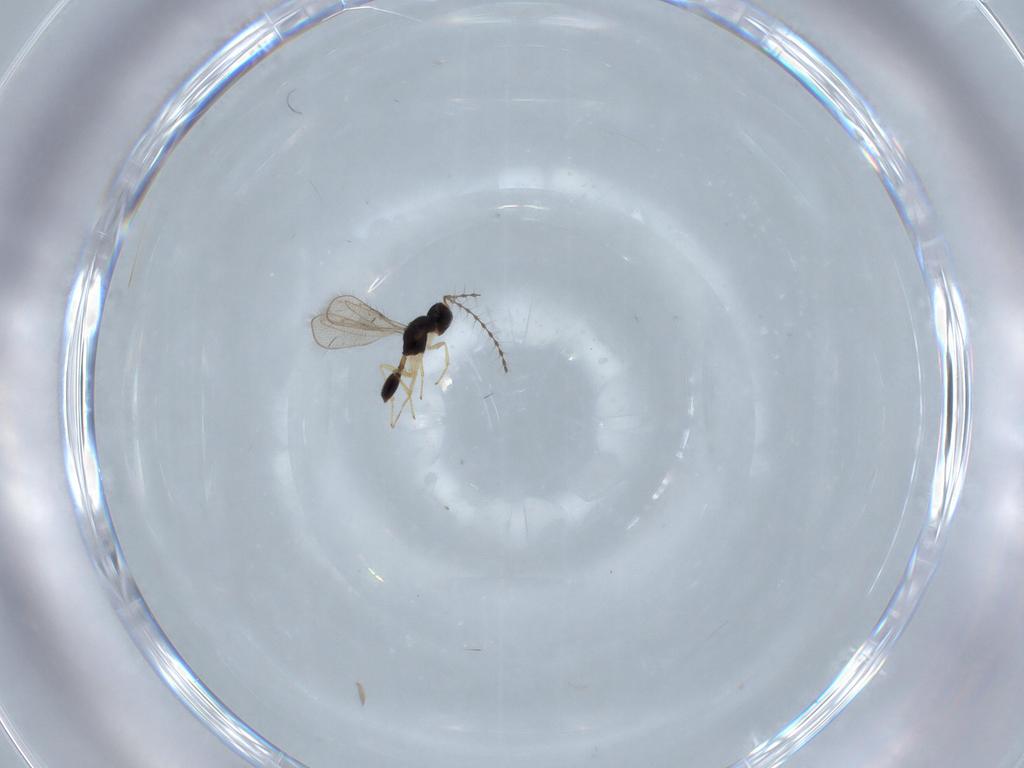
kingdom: Animalia
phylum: Arthropoda
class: Insecta
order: Hymenoptera
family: Diparidae
